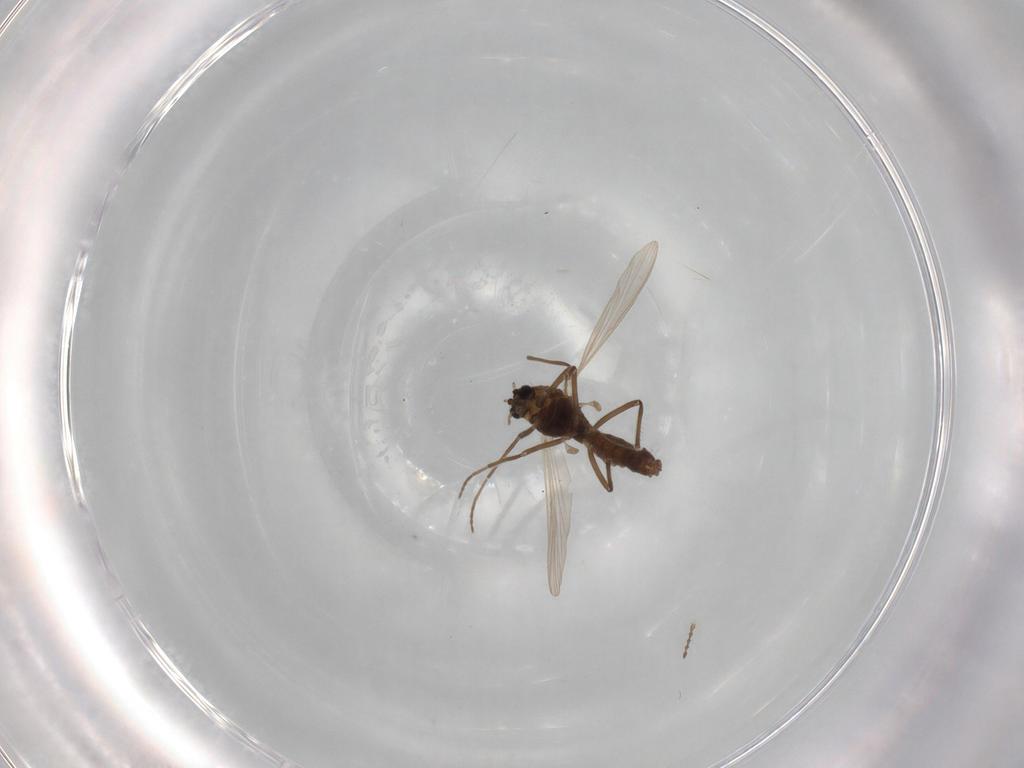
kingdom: Animalia
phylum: Arthropoda
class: Insecta
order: Diptera
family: Chironomidae
